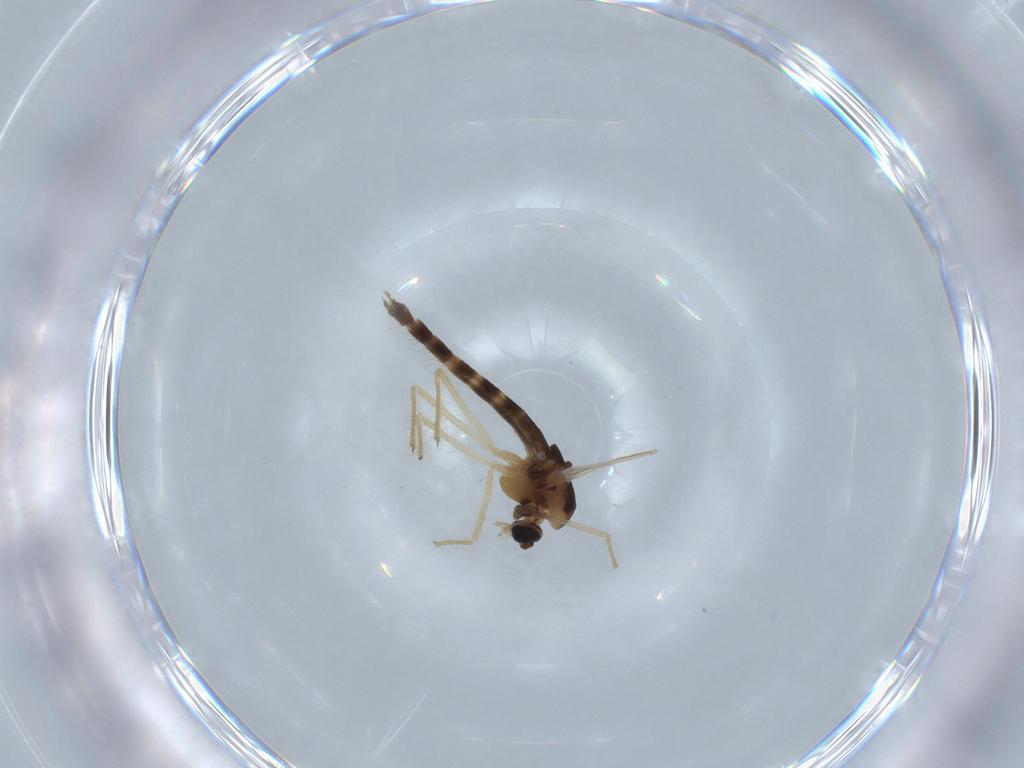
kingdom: Animalia
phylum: Arthropoda
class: Insecta
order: Diptera
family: Chironomidae
